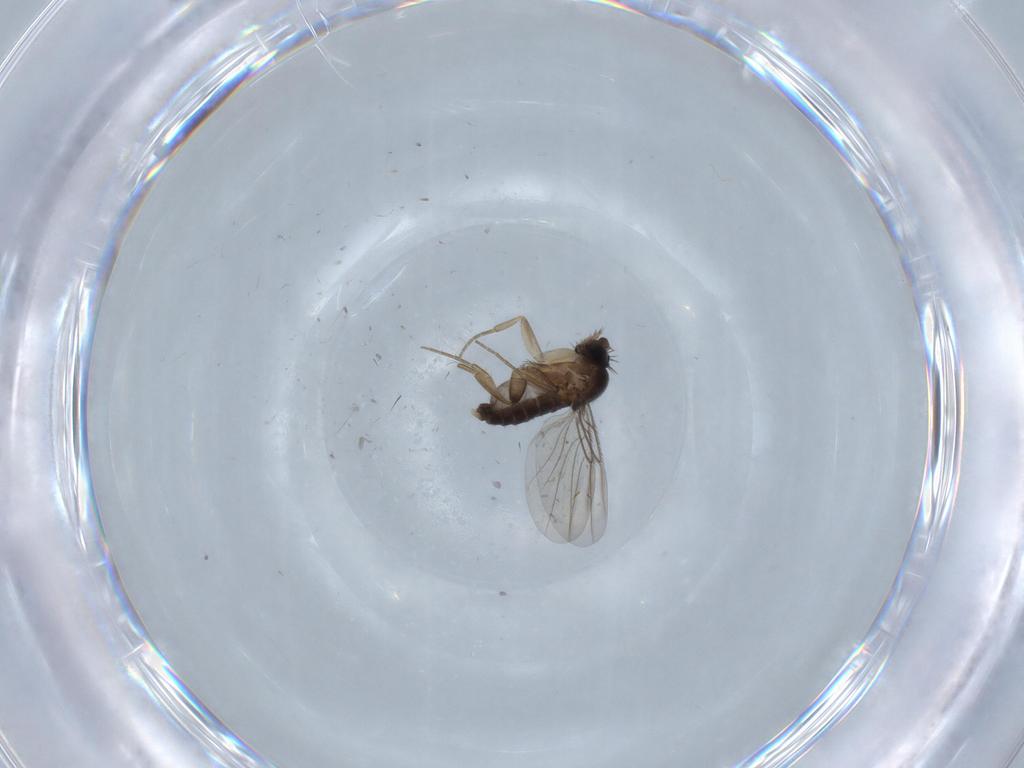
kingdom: Animalia
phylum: Arthropoda
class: Insecta
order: Diptera
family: Phoridae
